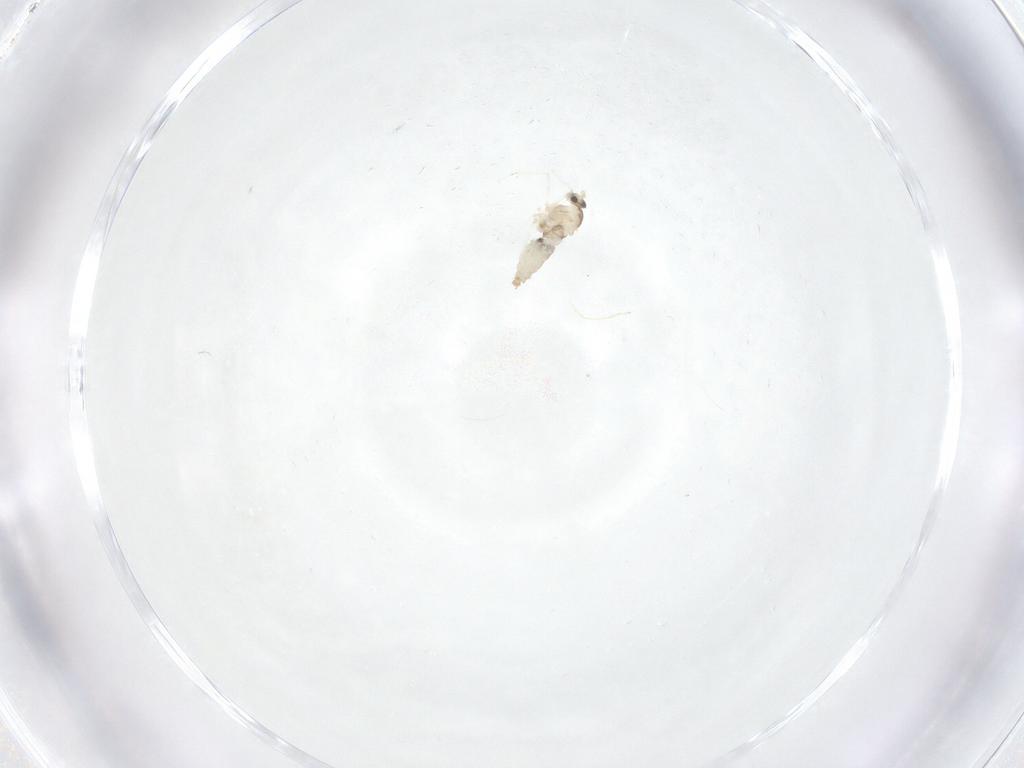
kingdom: Animalia
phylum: Arthropoda
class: Insecta
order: Diptera
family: Cecidomyiidae
